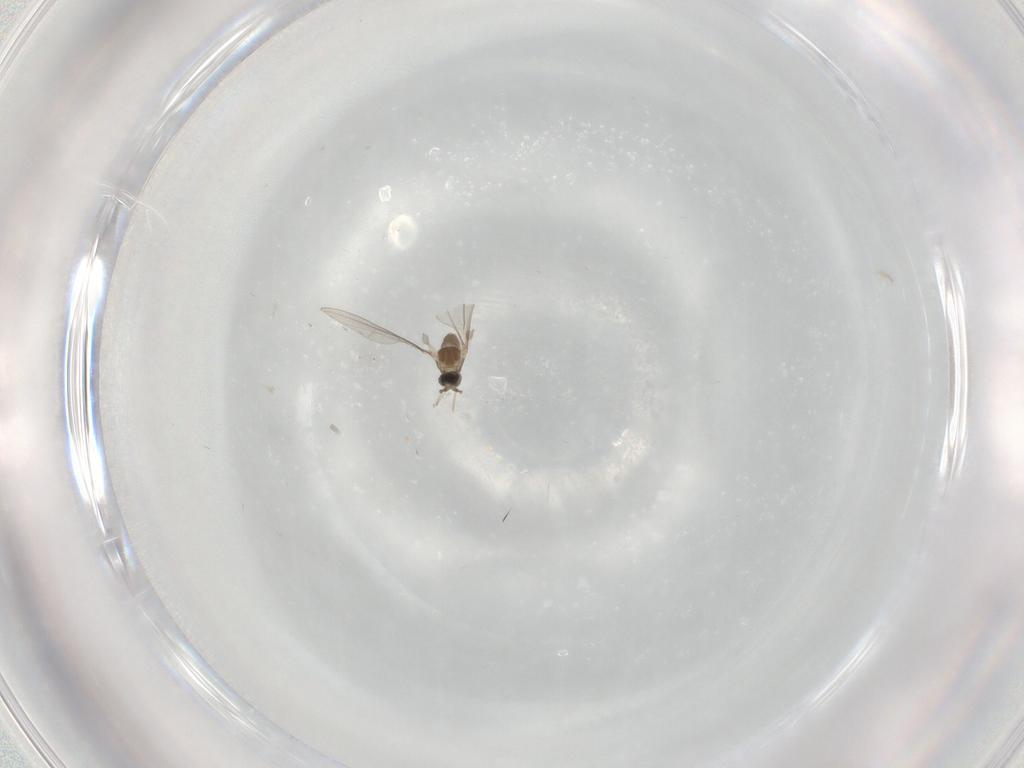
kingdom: Animalia
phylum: Arthropoda
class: Insecta
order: Diptera
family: Cecidomyiidae
